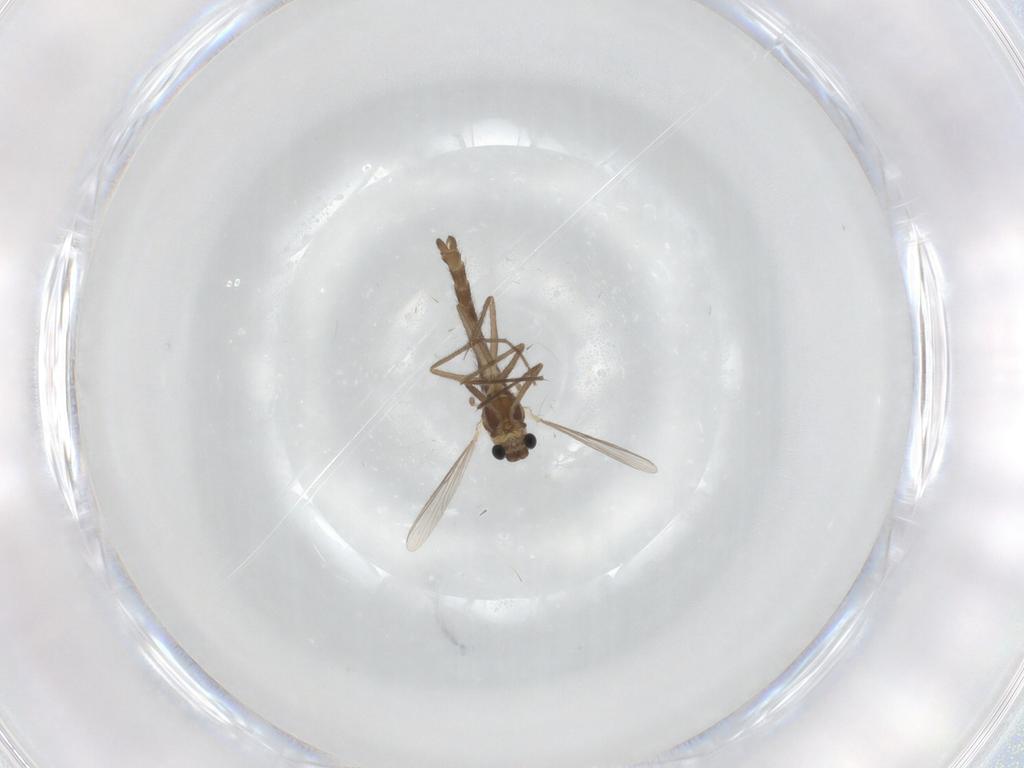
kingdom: Animalia
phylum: Arthropoda
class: Insecta
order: Diptera
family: Chironomidae
